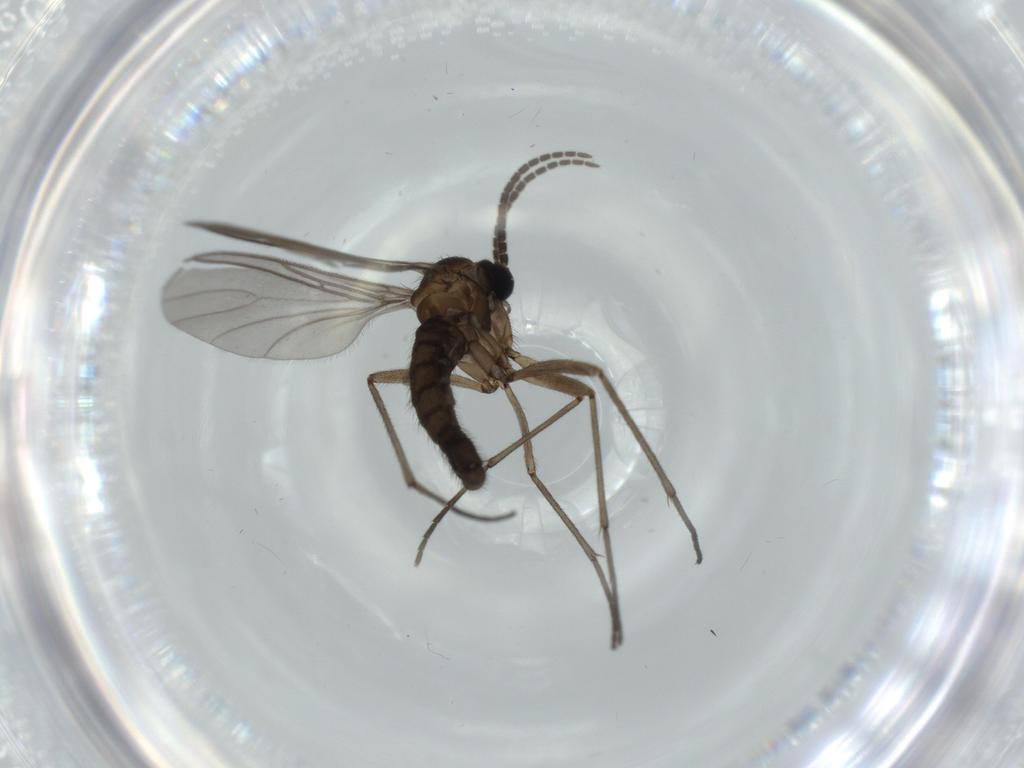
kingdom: Animalia
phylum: Arthropoda
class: Insecta
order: Diptera
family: Sciaridae
